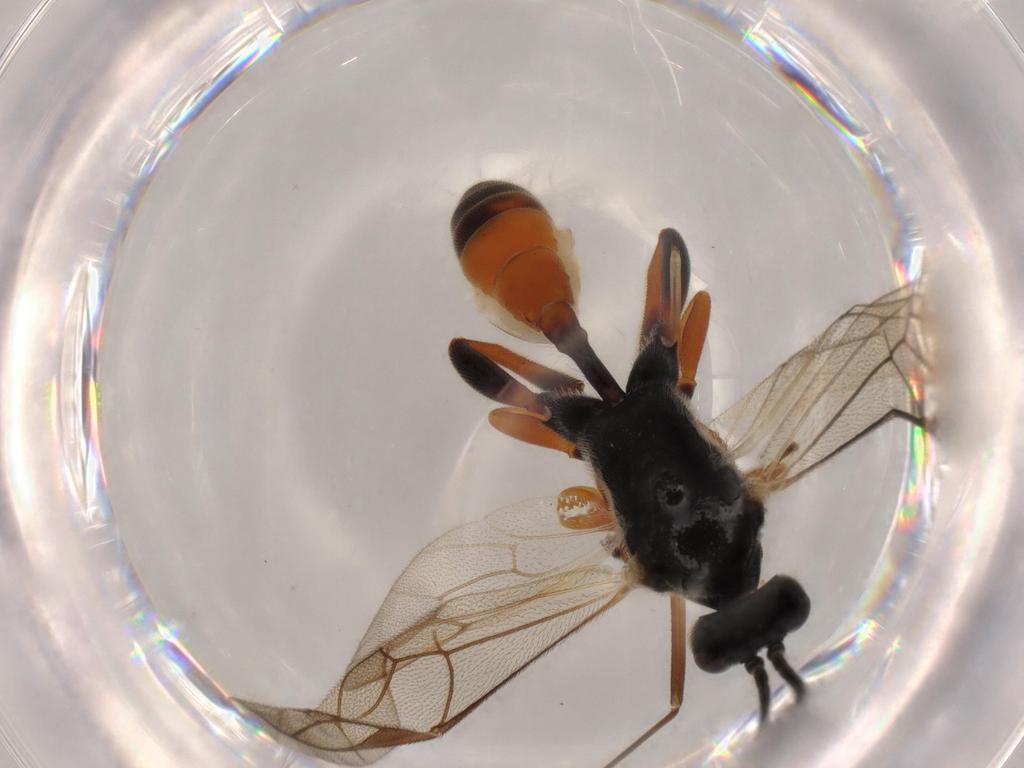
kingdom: Animalia
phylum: Arthropoda
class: Insecta
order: Hymenoptera
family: Ichneumonidae
